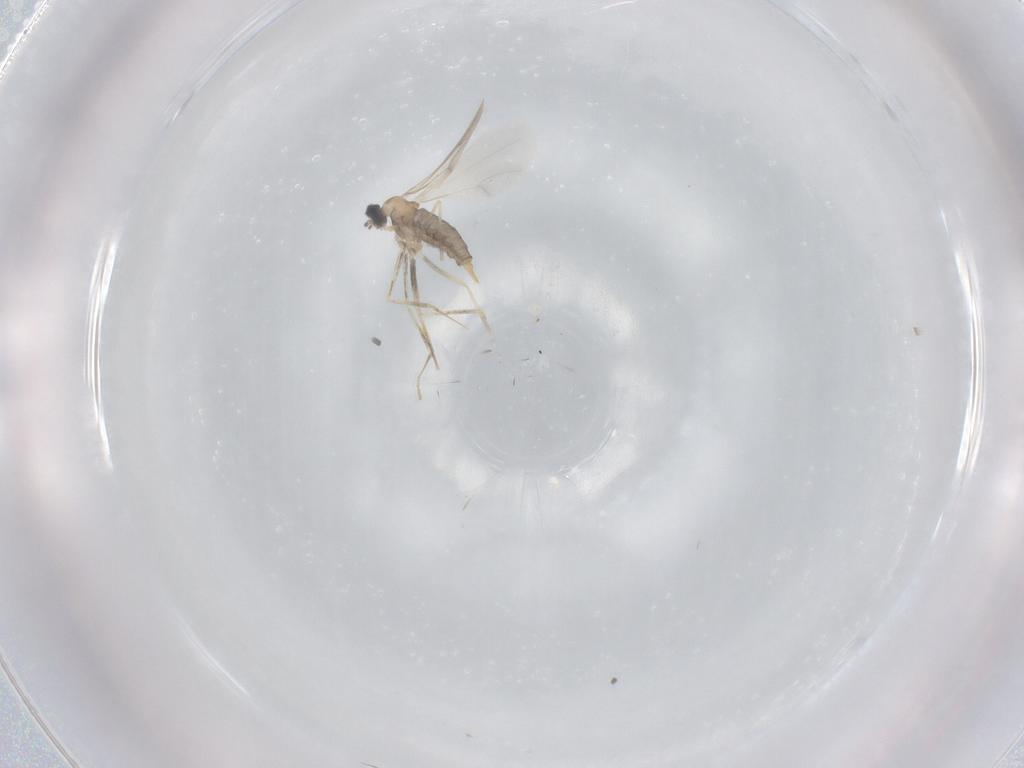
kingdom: Animalia
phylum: Arthropoda
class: Insecta
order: Diptera
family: Cecidomyiidae
